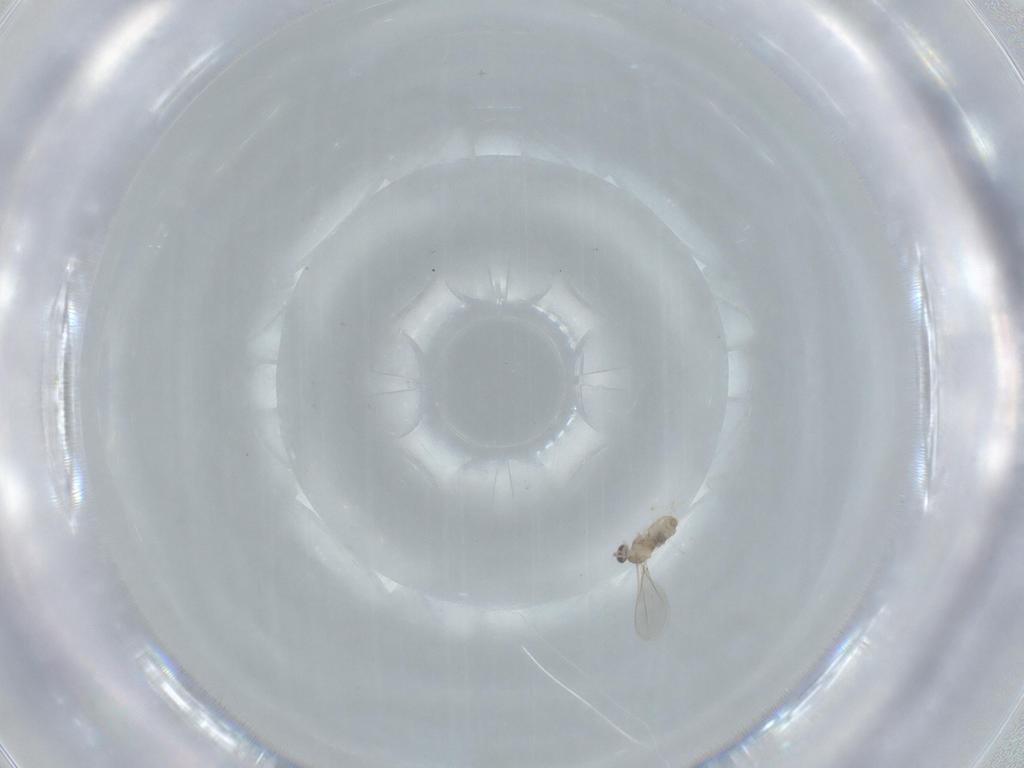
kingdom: Animalia
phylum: Arthropoda
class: Insecta
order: Diptera
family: Cecidomyiidae
